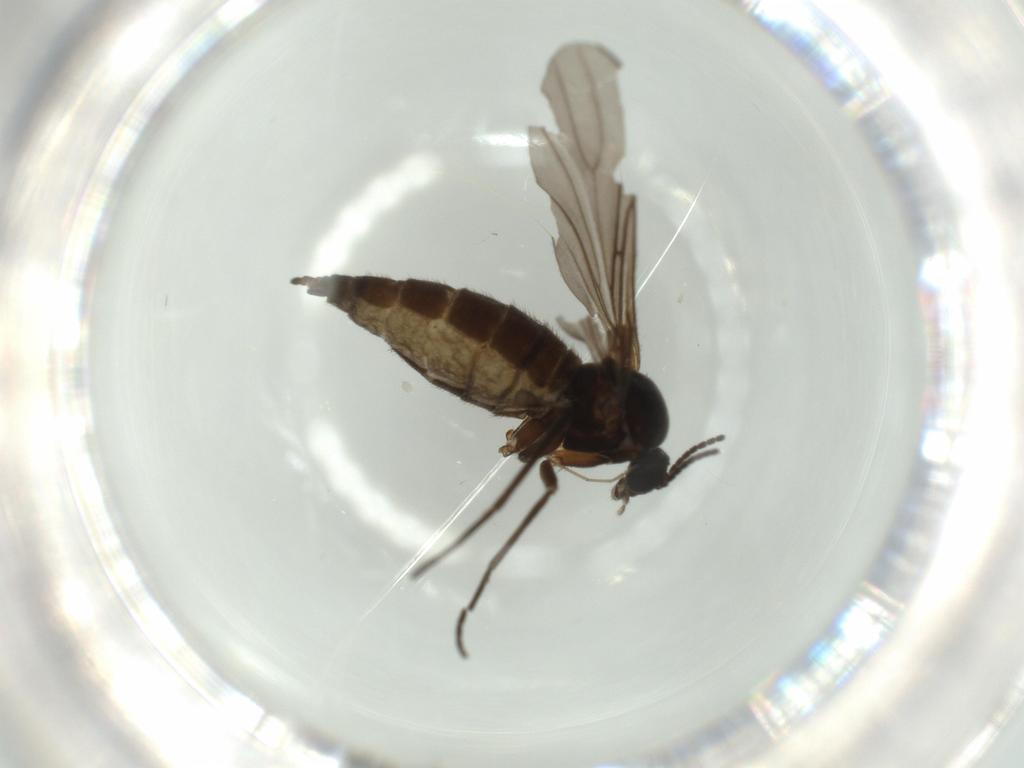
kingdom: Animalia
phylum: Arthropoda
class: Insecta
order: Diptera
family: Sciaridae
